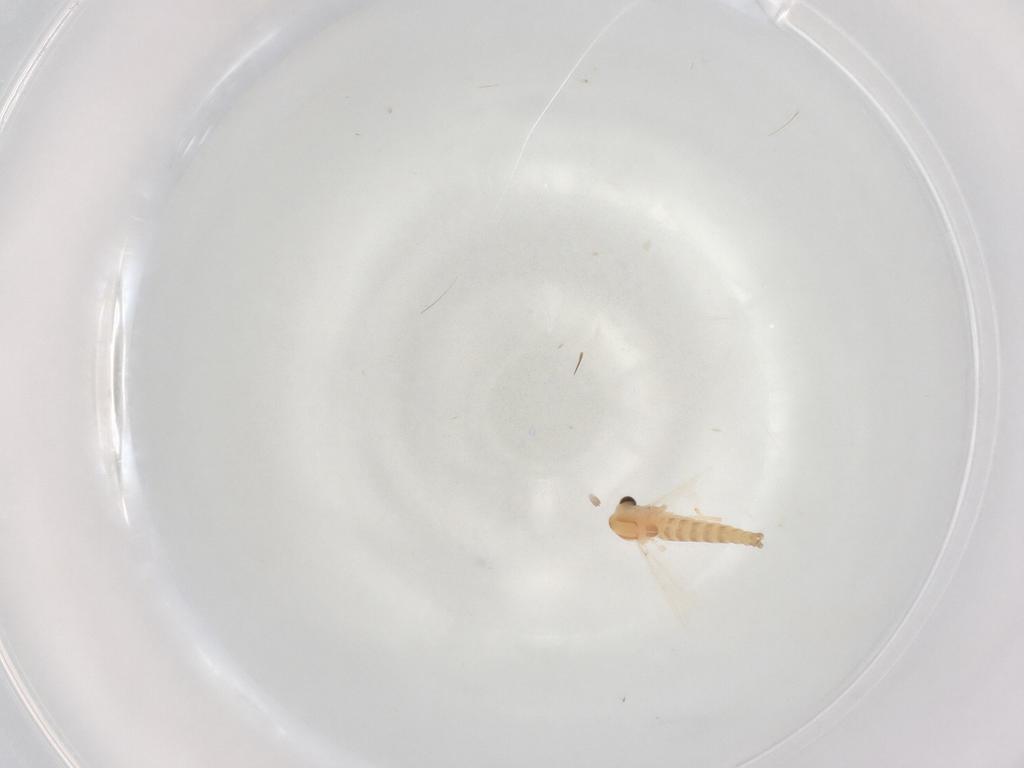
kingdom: Animalia
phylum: Arthropoda
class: Insecta
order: Diptera
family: Chironomidae
